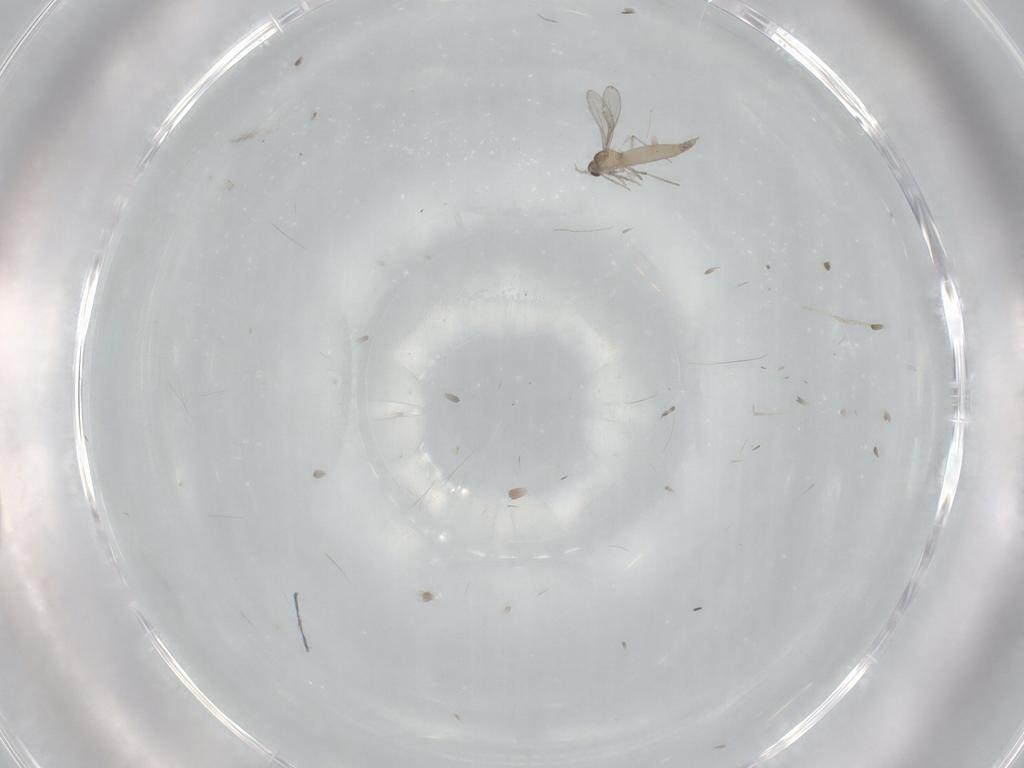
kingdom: Animalia
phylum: Arthropoda
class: Insecta
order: Diptera
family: Cecidomyiidae
